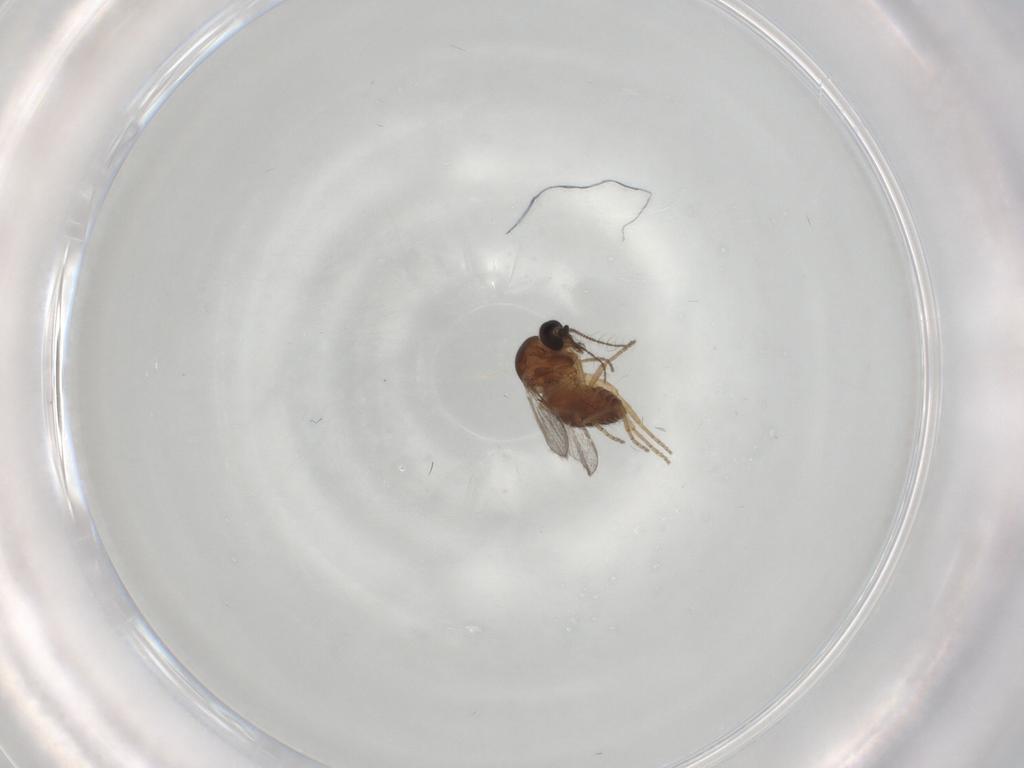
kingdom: Animalia
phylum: Arthropoda
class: Insecta
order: Diptera
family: Ceratopogonidae
